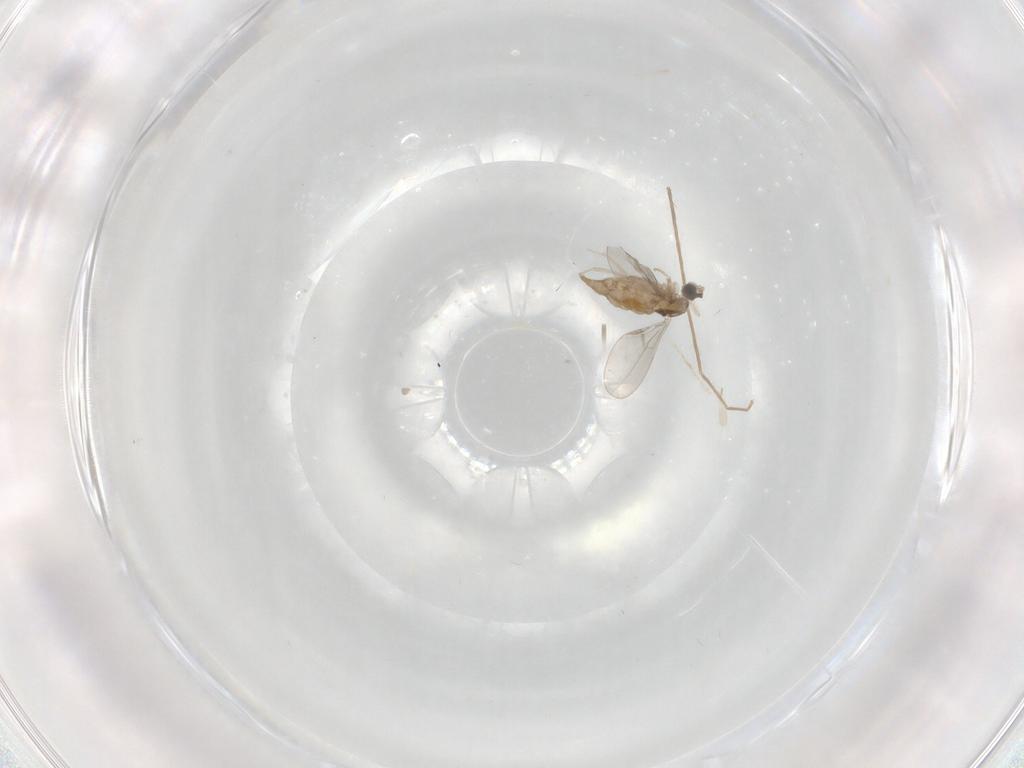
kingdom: Animalia
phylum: Arthropoda
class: Insecta
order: Diptera
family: Cecidomyiidae
